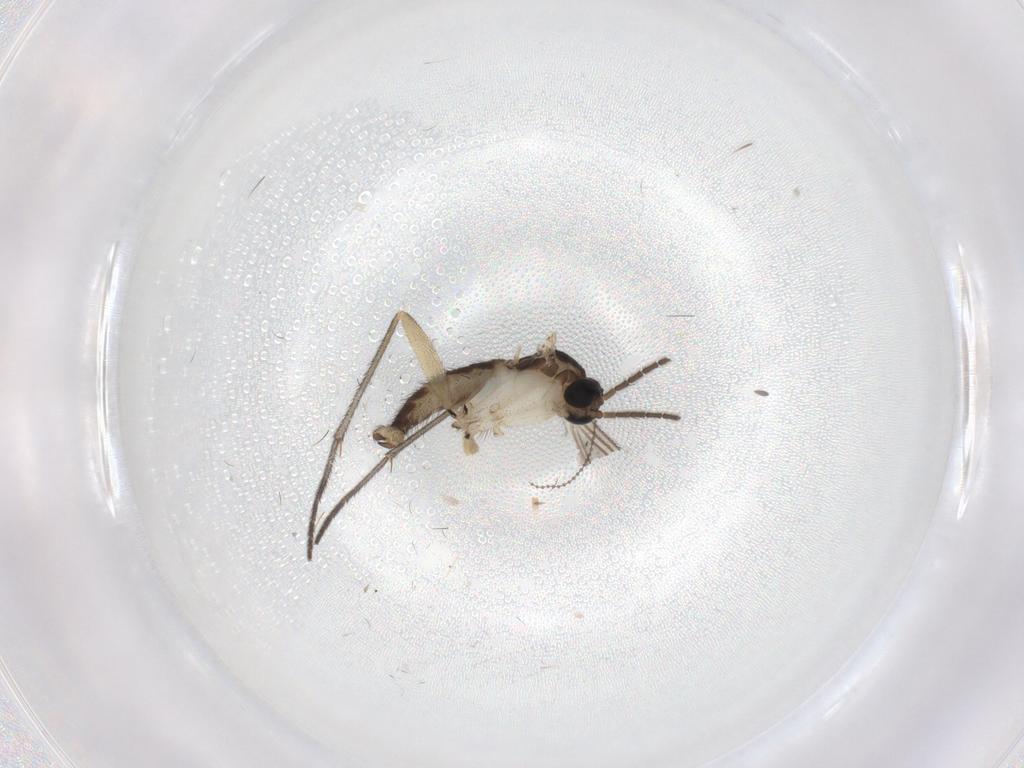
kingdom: Animalia
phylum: Arthropoda
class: Insecta
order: Diptera
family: Sciaridae
